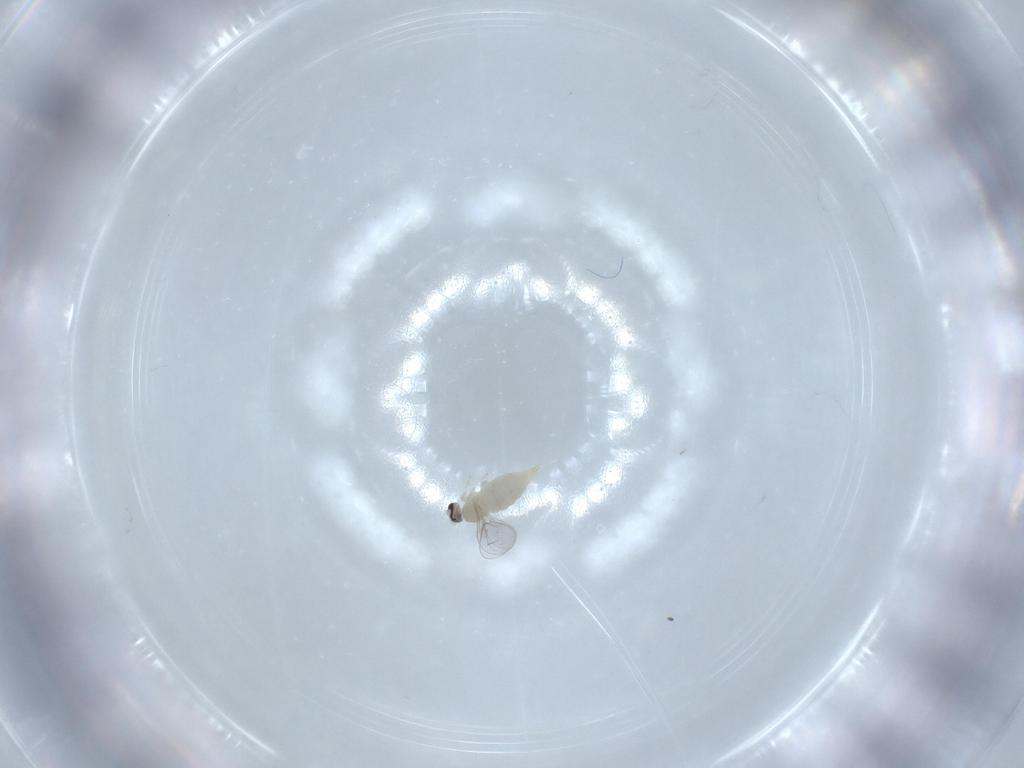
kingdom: Animalia
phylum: Arthropoda
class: Insecta
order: Diptera
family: Cecidomyiidae
